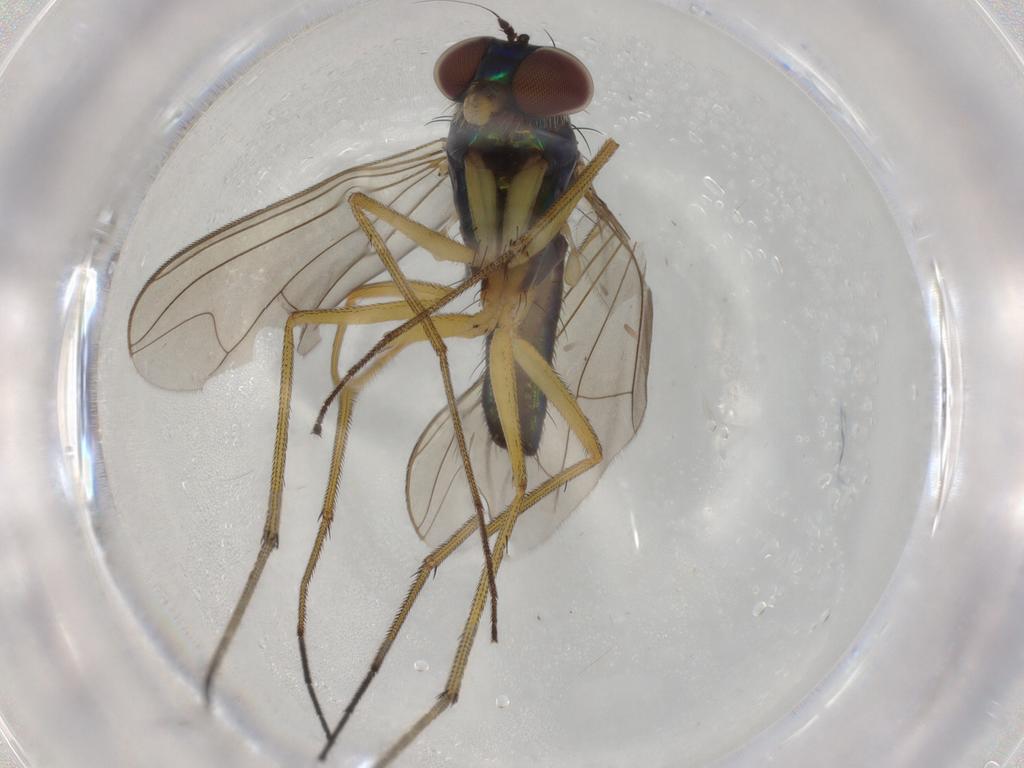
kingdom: Animalia
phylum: Arthropoda
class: Insecta
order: Diptera
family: Dolichopodidae
